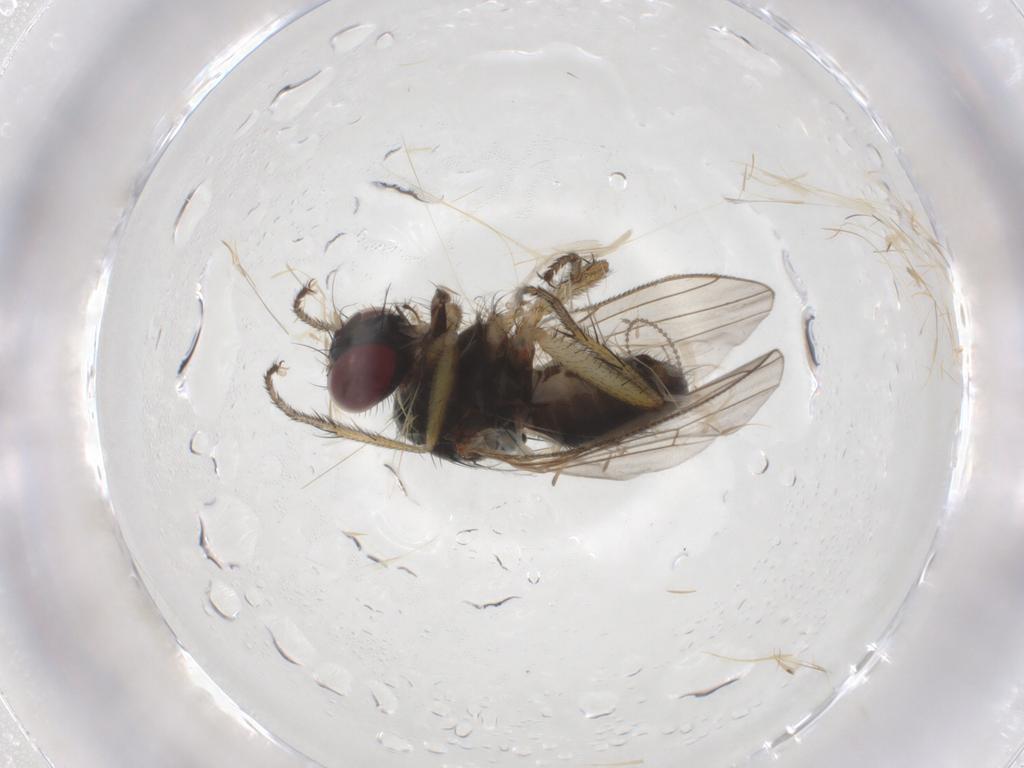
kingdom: Animalia
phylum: Arthropoda
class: Insecta
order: Diptera
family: Muscidae
